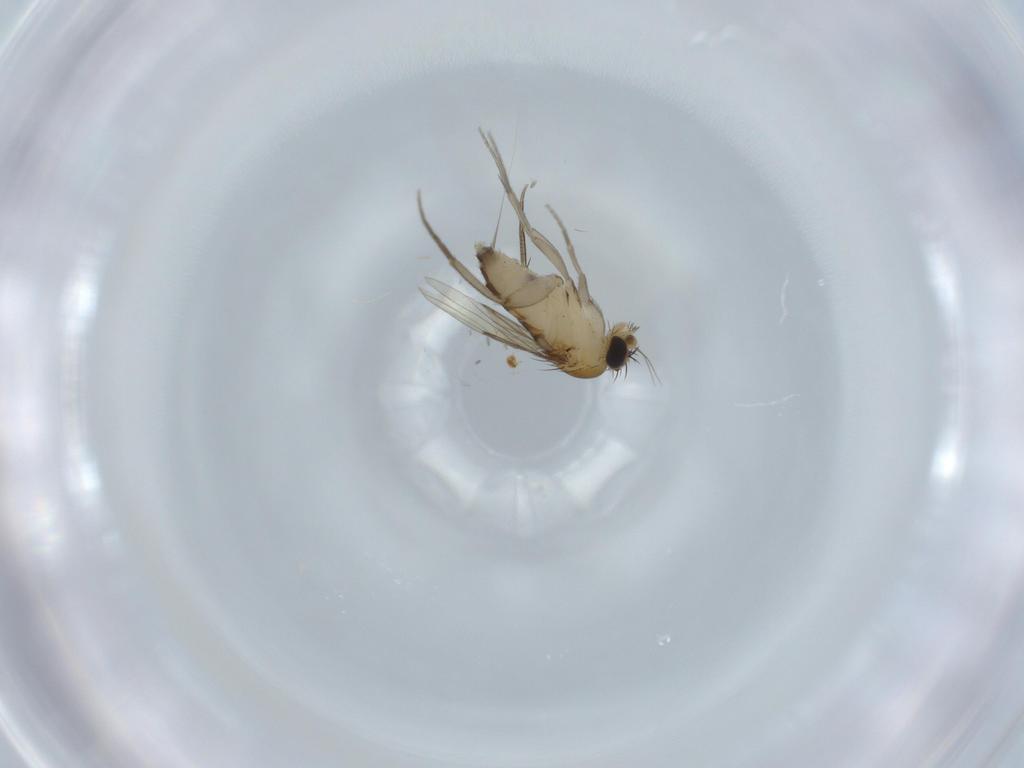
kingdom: Animalia
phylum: Arthropoda
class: Insecta
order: Diptera
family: Phoridae
